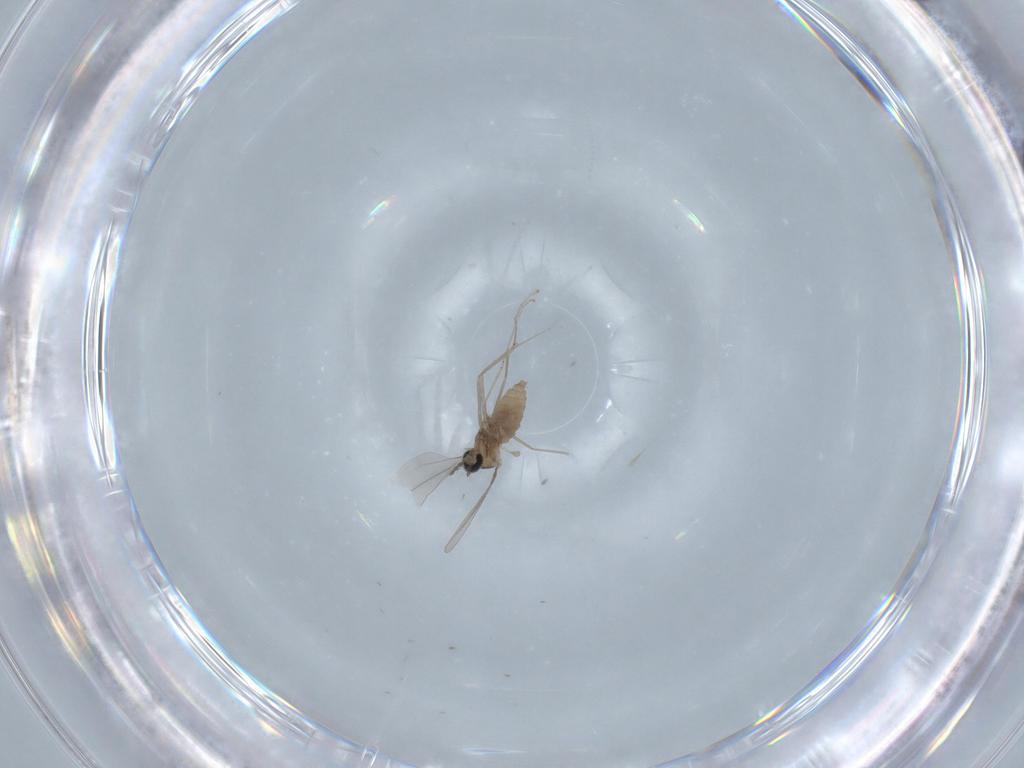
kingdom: Animalia
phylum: Arthropoda
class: Insecta
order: Diptera
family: Cecidomyiidae
